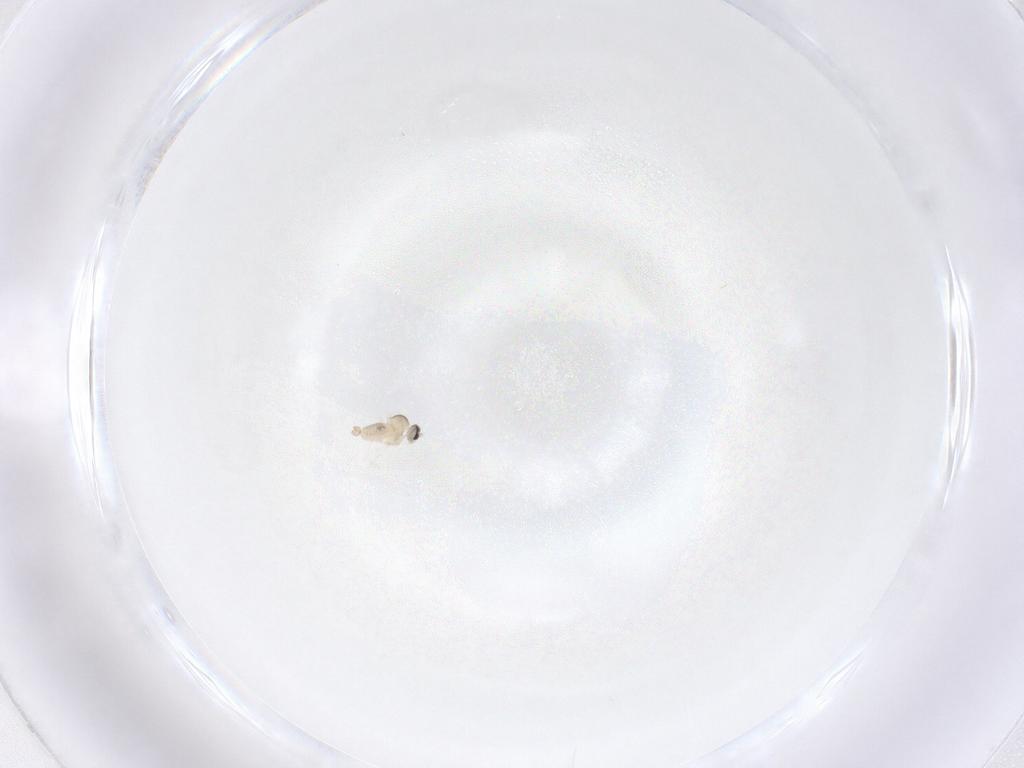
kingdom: Animalia
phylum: Arthropoda
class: Insecta
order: Diptera
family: Cecidomyiidae
